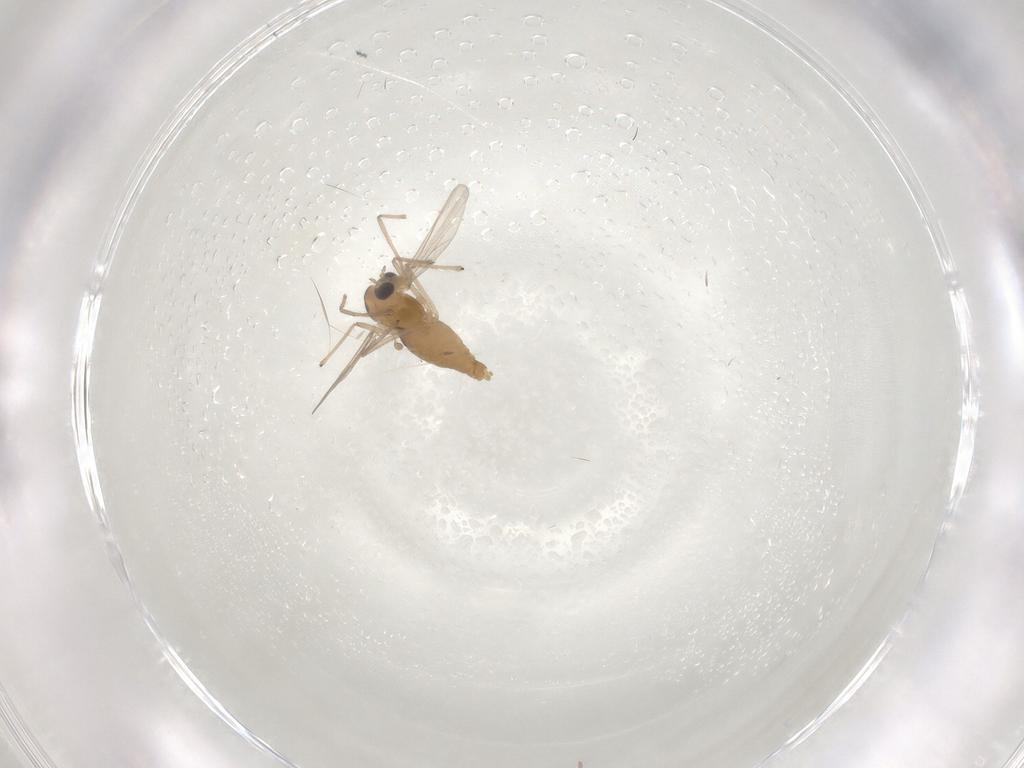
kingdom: Animalia
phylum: Arthropoda
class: Insecta
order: Diptera
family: Chironomidae
